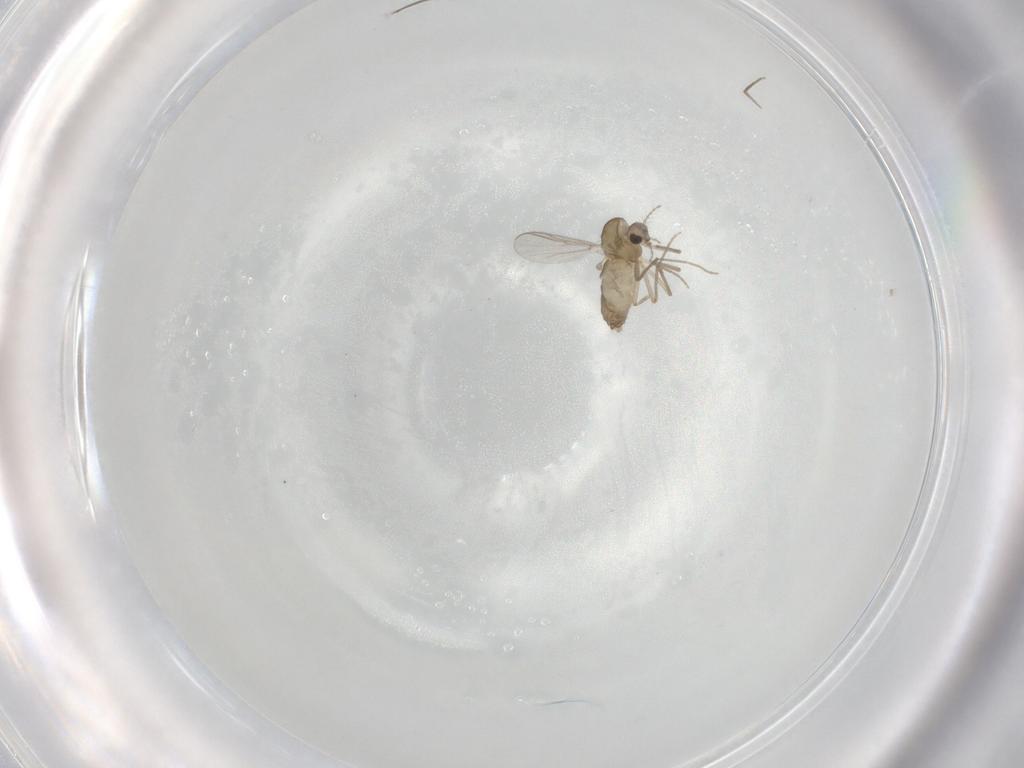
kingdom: Animalia
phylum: Arthropoda
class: Insecta
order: Diptera
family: Chironomidae
